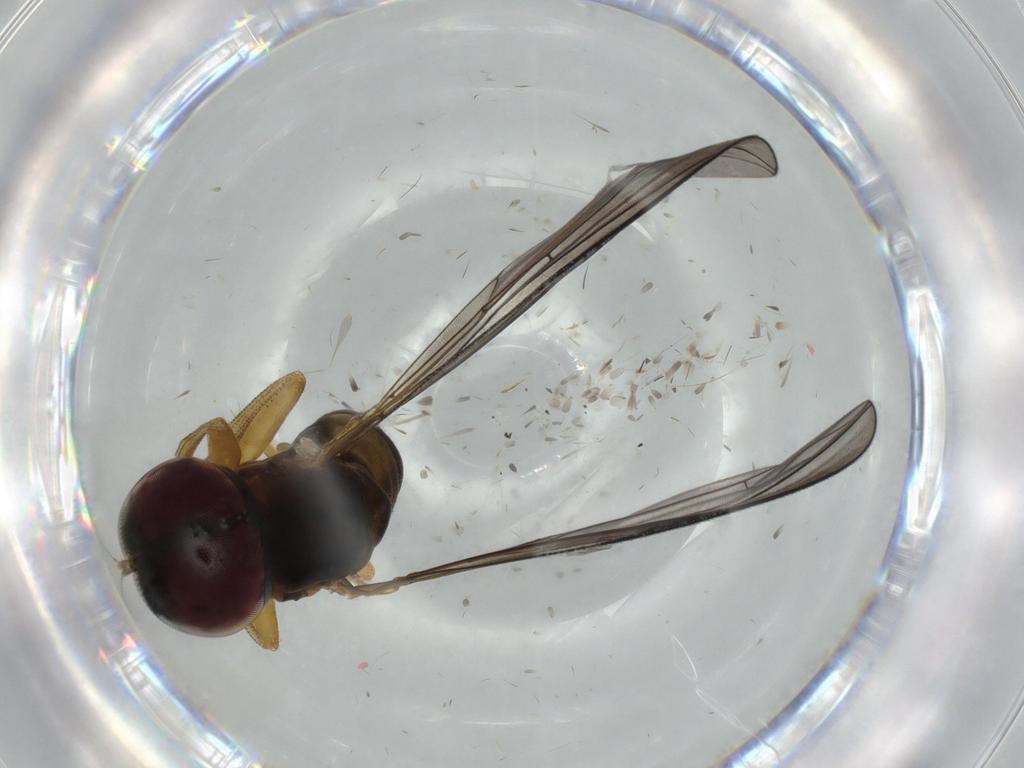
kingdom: Animalia
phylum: Arthropoda
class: Insecta
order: Diptera
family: Pipunculidae
